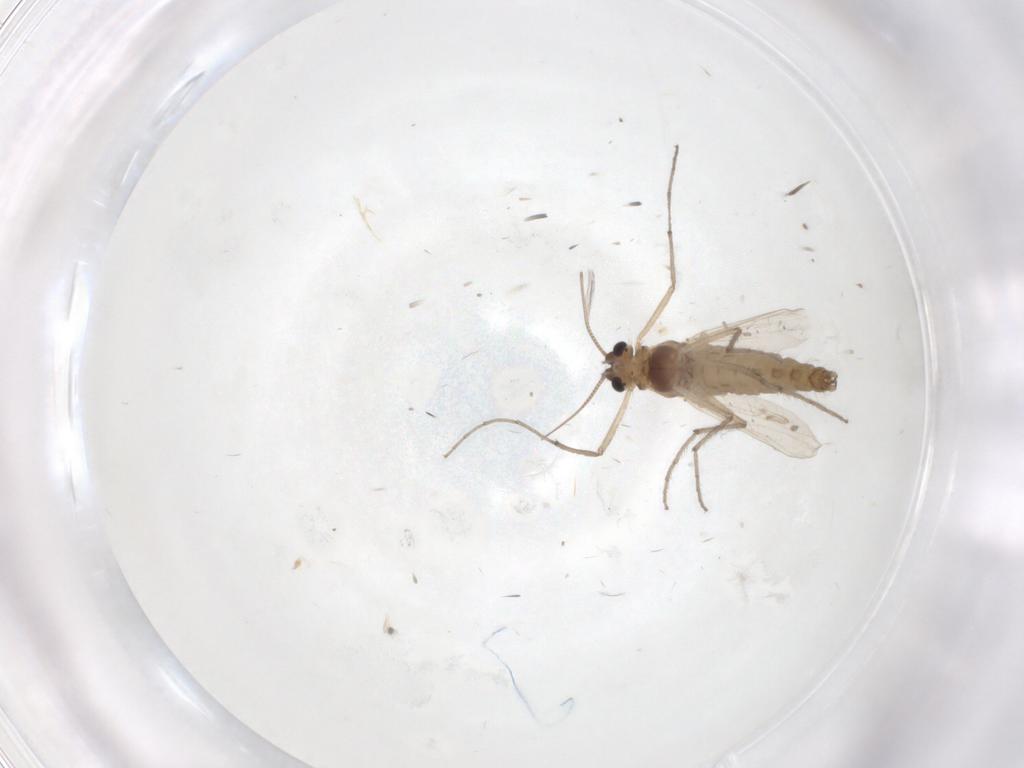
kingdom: Animalia
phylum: Arthropoda
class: Insecta
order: Diptera
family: Chironomidae
